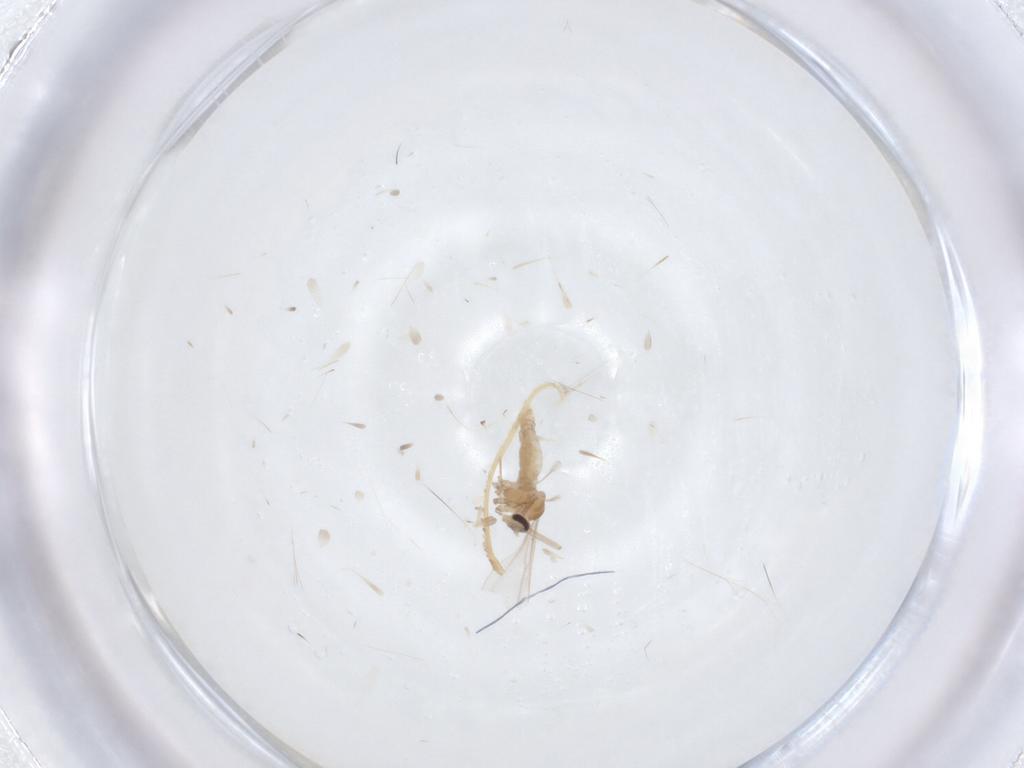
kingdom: Animalia
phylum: Arthropoda
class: Insecta
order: Diptera
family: Cecidomyiidae
